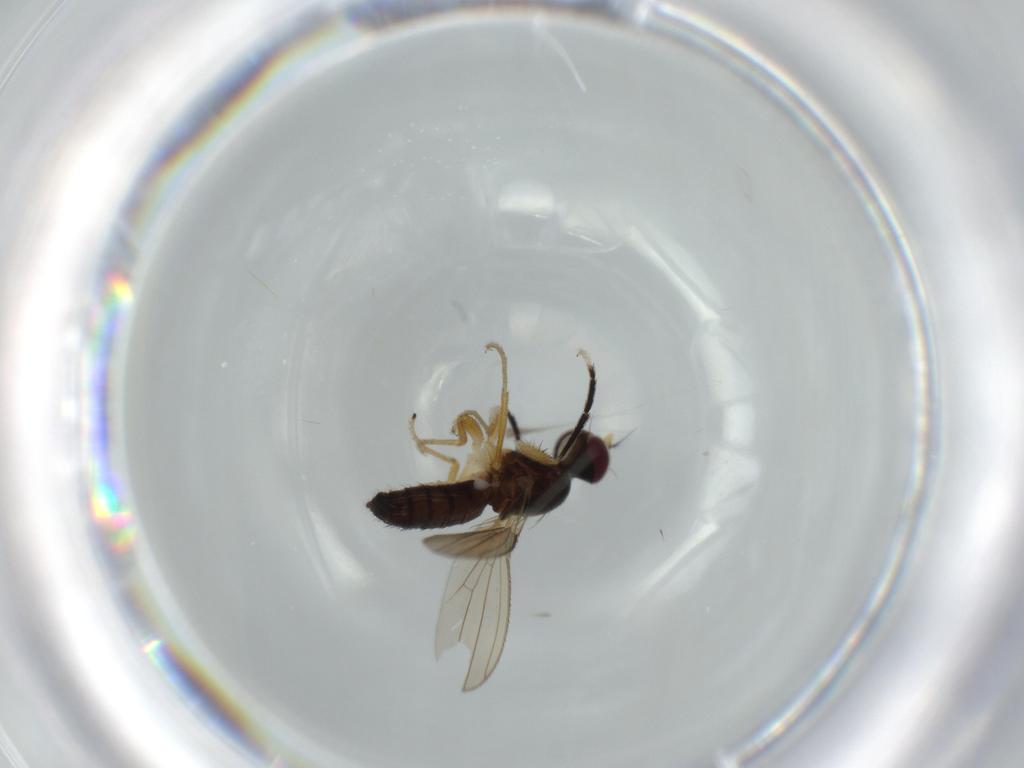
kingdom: Animalia
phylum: Arthropoda
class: Insecta
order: Diptera
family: Anthomyzidae
